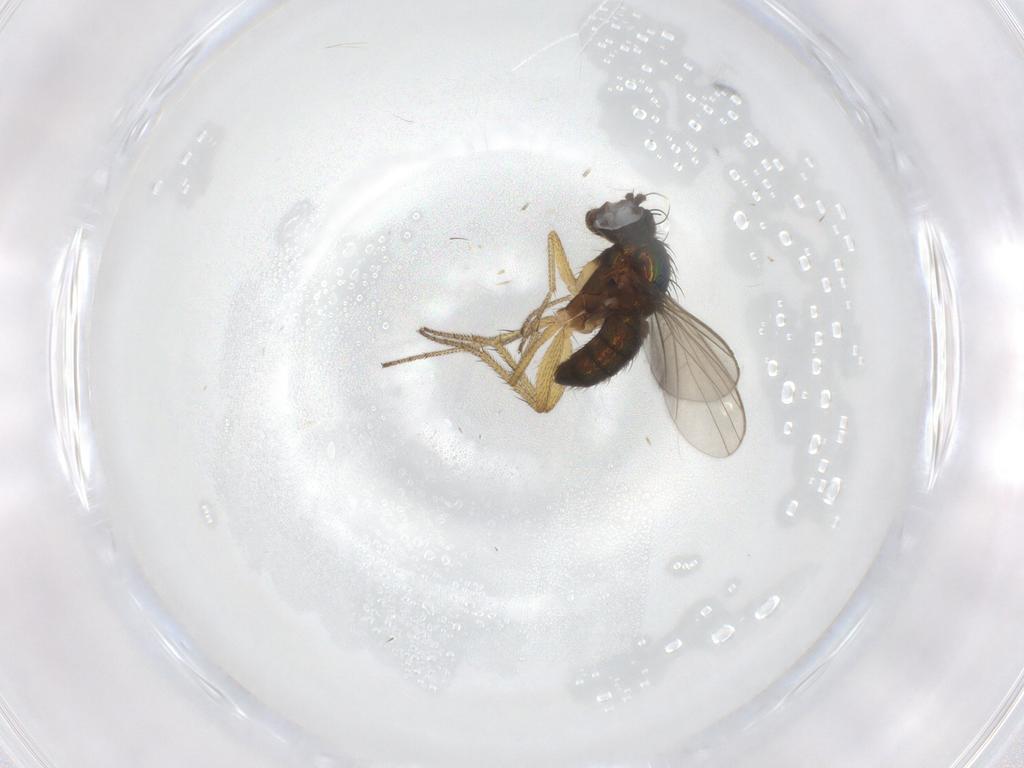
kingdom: Animalia
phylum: Arthropoda
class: Insecta
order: Diptera
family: Dolichopodidae
